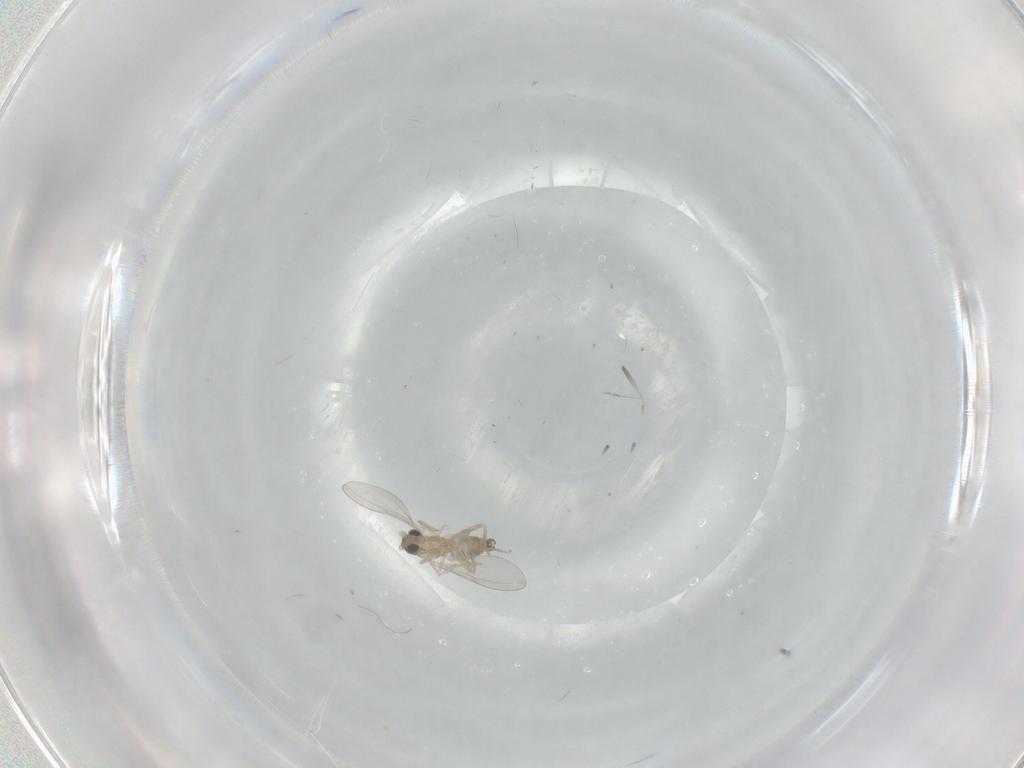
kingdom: Animalia
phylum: Arthropoda
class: Insecta
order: Diptera
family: Cecidomyiidae
